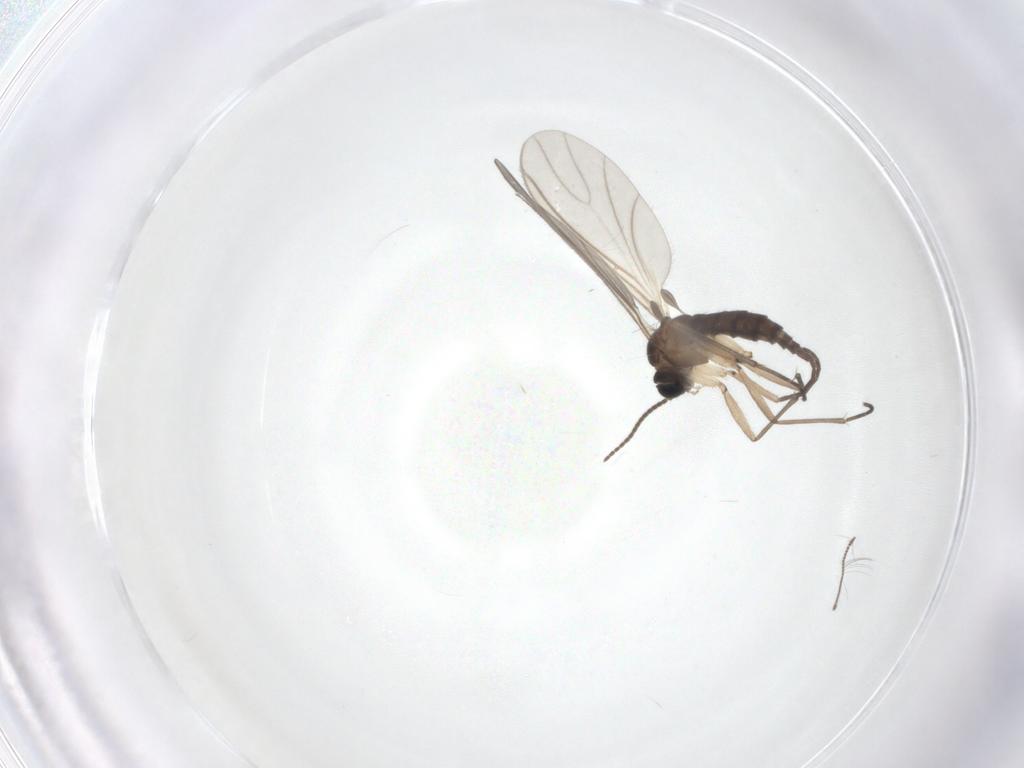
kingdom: Animalia
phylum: Arthropoda
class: Insecta
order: Diptera
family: Sciaridae
